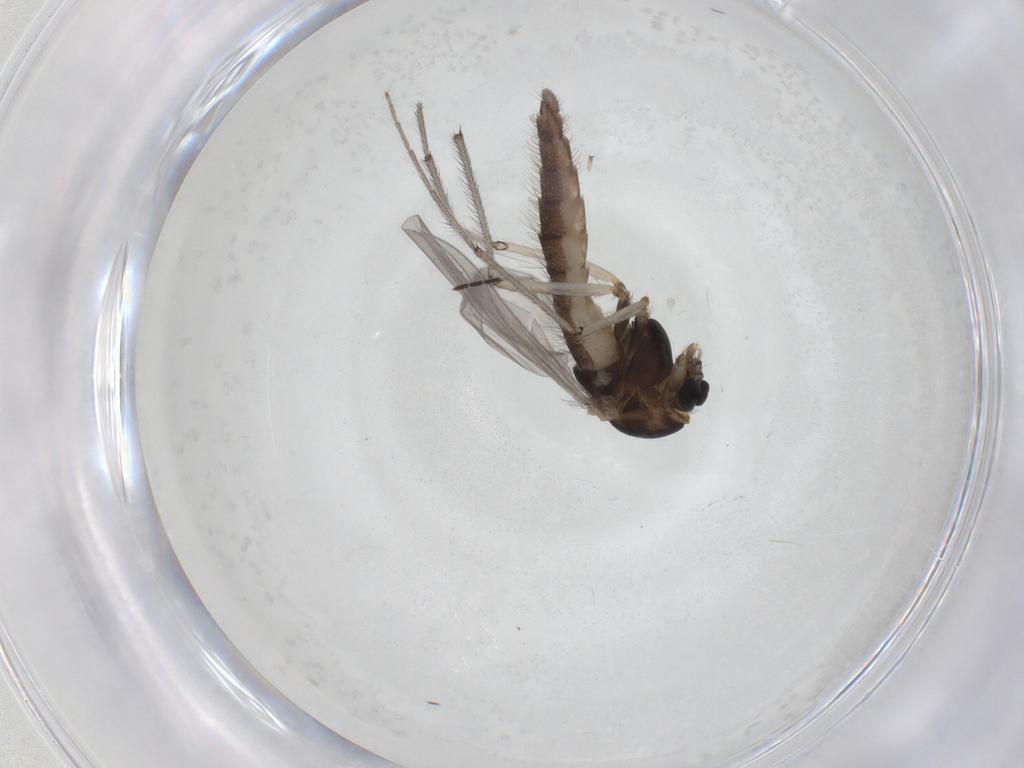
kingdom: Animalia
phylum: Arthropoda
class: Insecta
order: Diptera
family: Chironomidae
